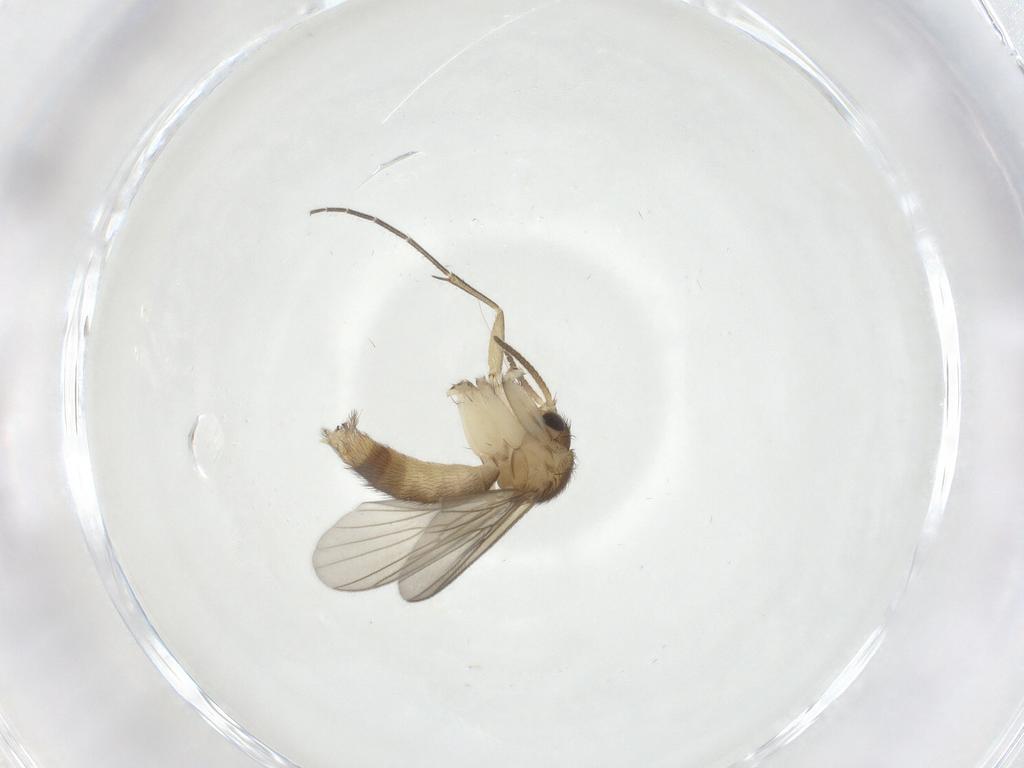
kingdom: Animalia
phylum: Arthropoda
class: Insecta
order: Diptera
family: Mycetophilidae
